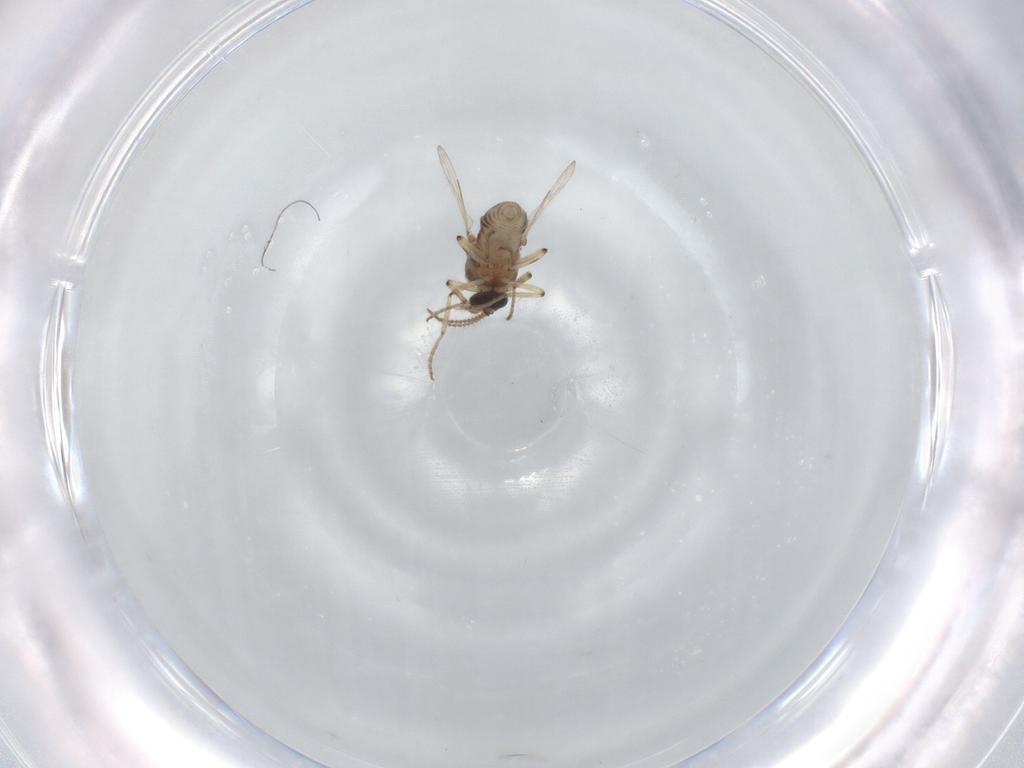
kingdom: Animalia
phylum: Arthropoda
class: Insecta
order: Diptera
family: Ceratopogonidae
